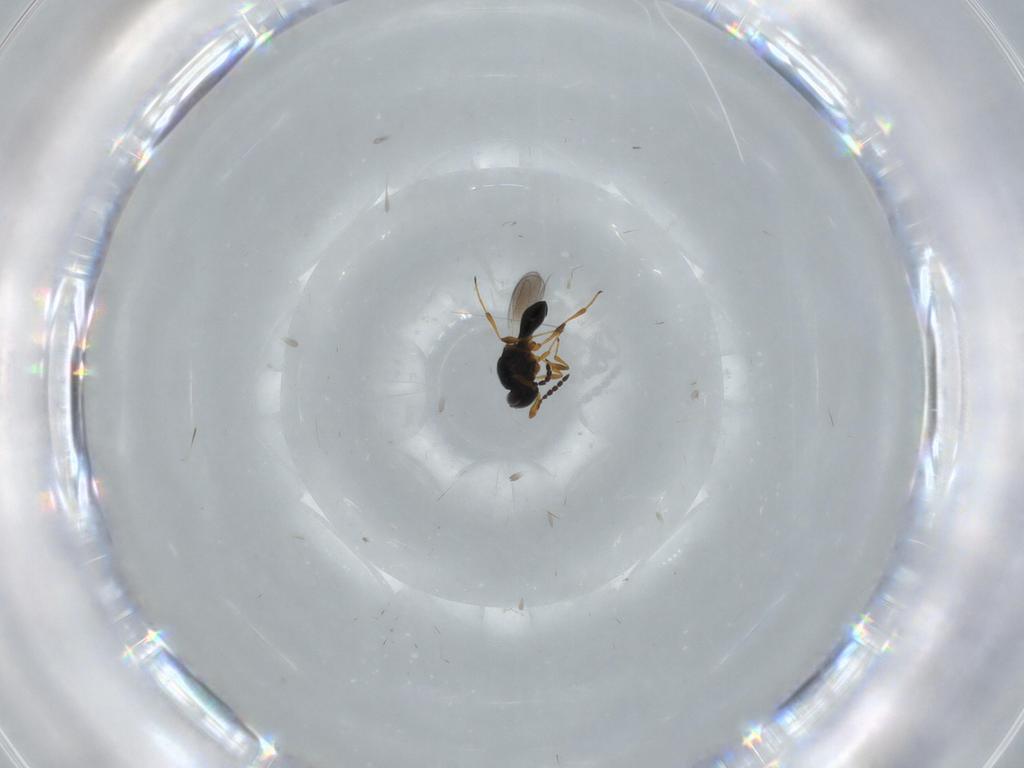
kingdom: Animalia
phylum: Arthropoda
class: Insecta
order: Hymenoptera
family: Platygastridae
